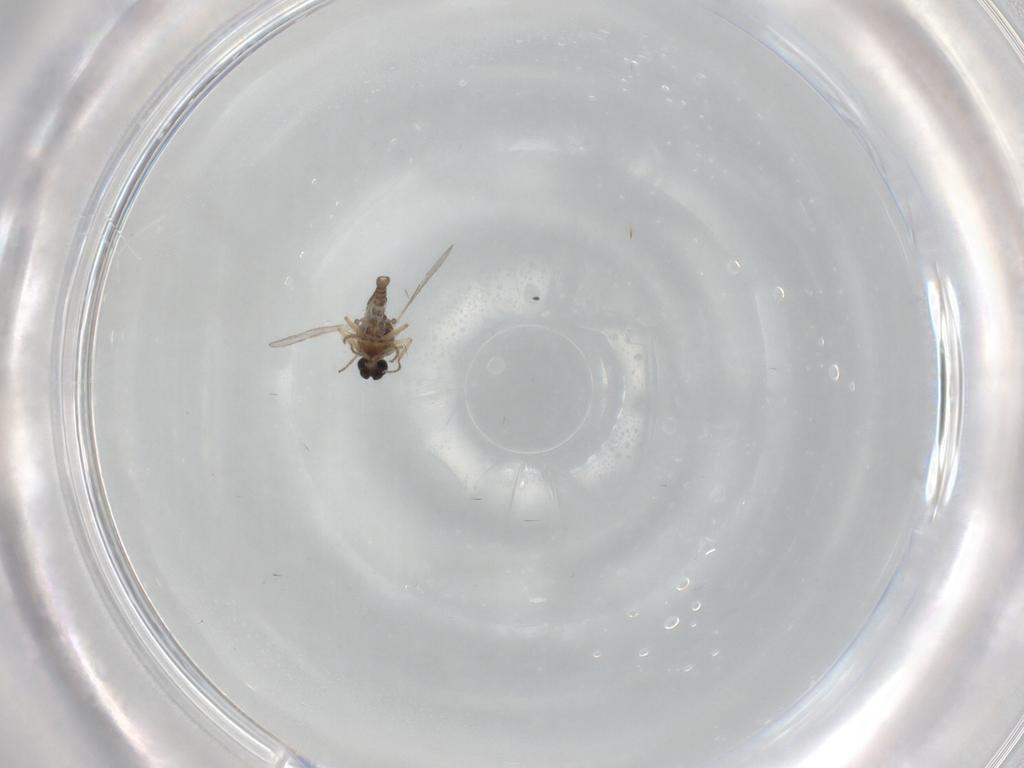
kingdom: Animalia
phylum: Arthropoda
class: Insecta
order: Diptera
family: Ceratopogonidae
